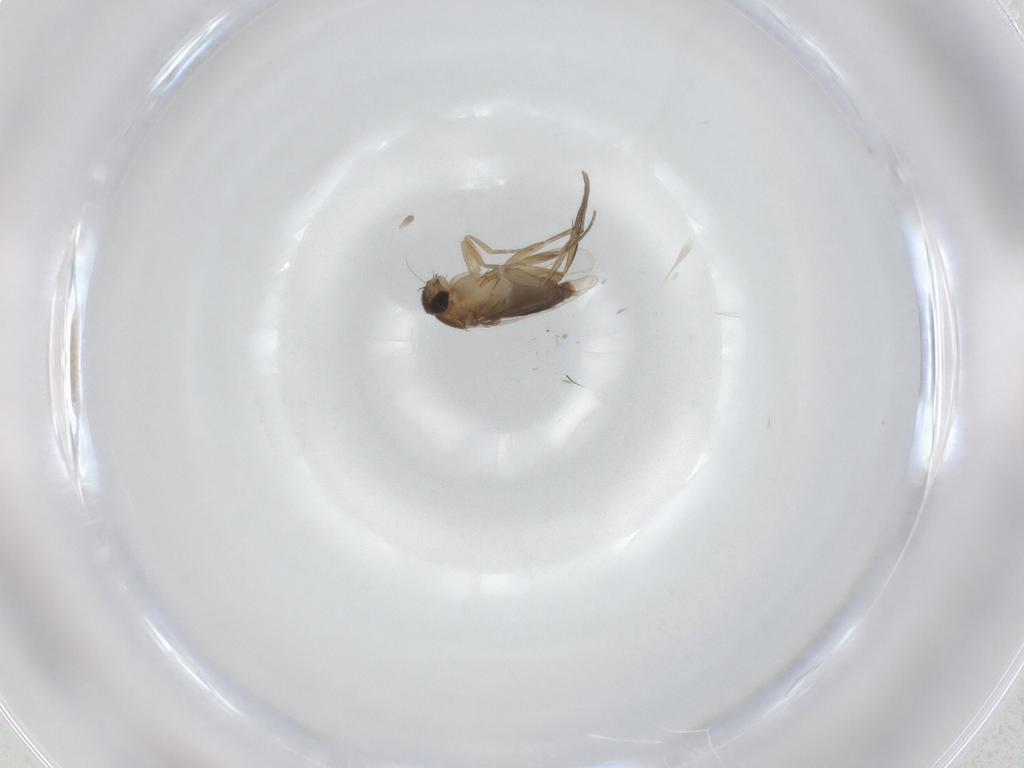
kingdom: Animalia
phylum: Arthropoda
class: Insecta
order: Diptera
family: Phoridae
